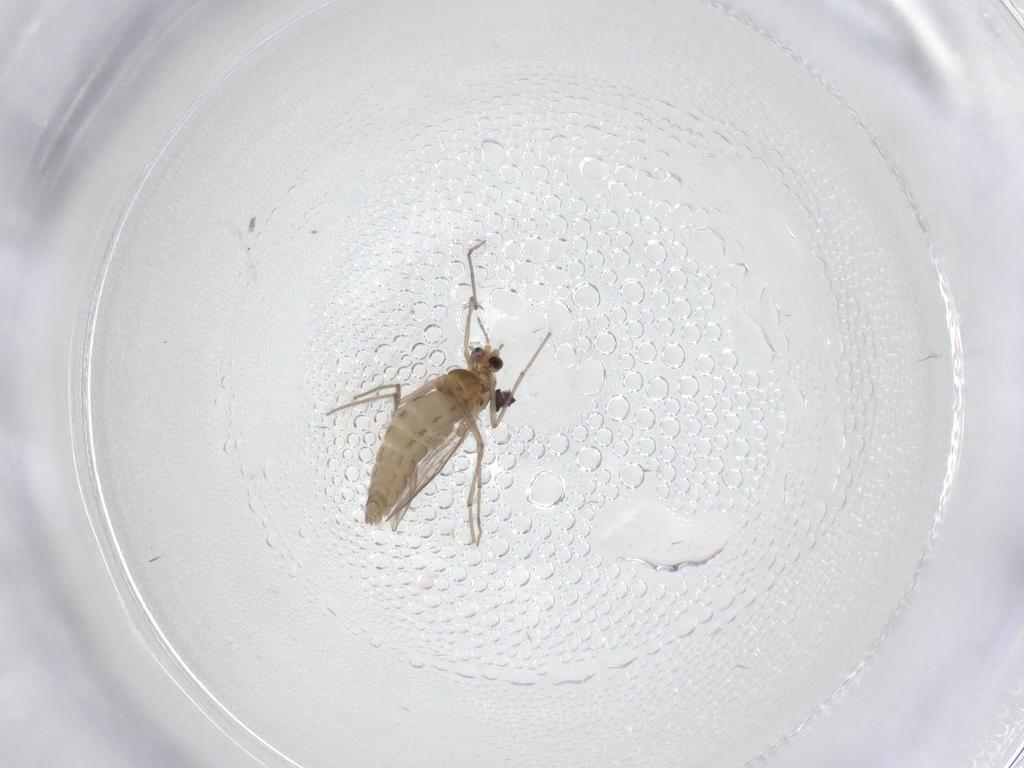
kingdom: Animalia
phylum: Arthropoda
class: Insecta
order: Diptera
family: Chironomidae
